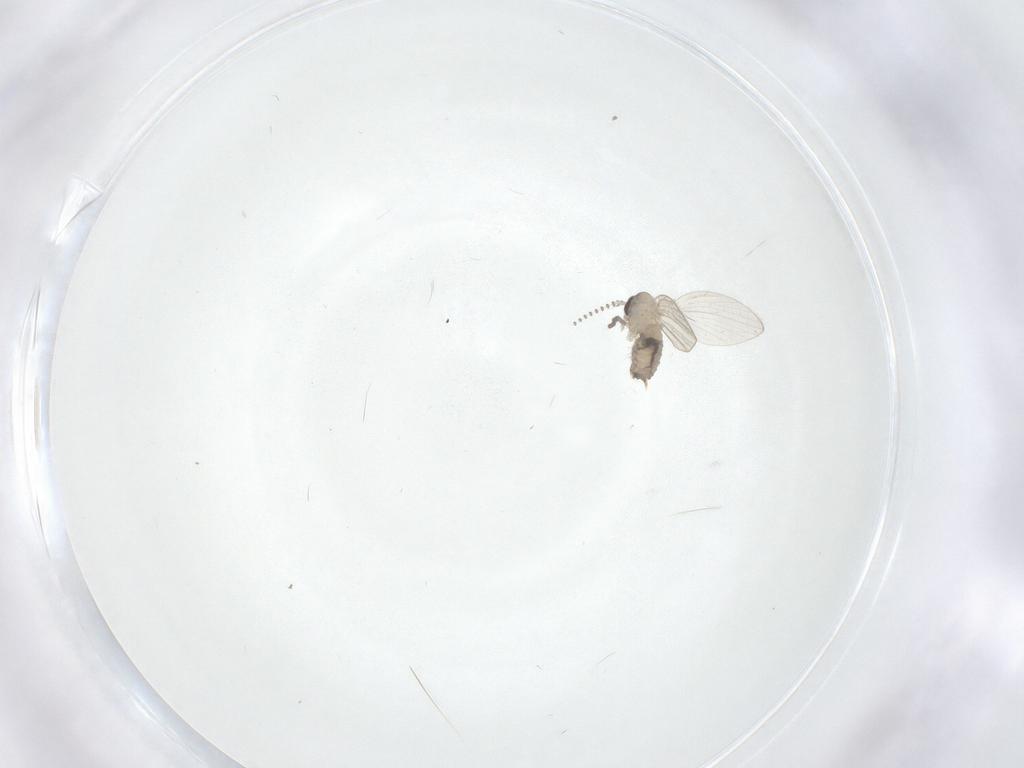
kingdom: Animalia
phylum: Arthropoda
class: Insecta
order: Diptera
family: Psychodidae
